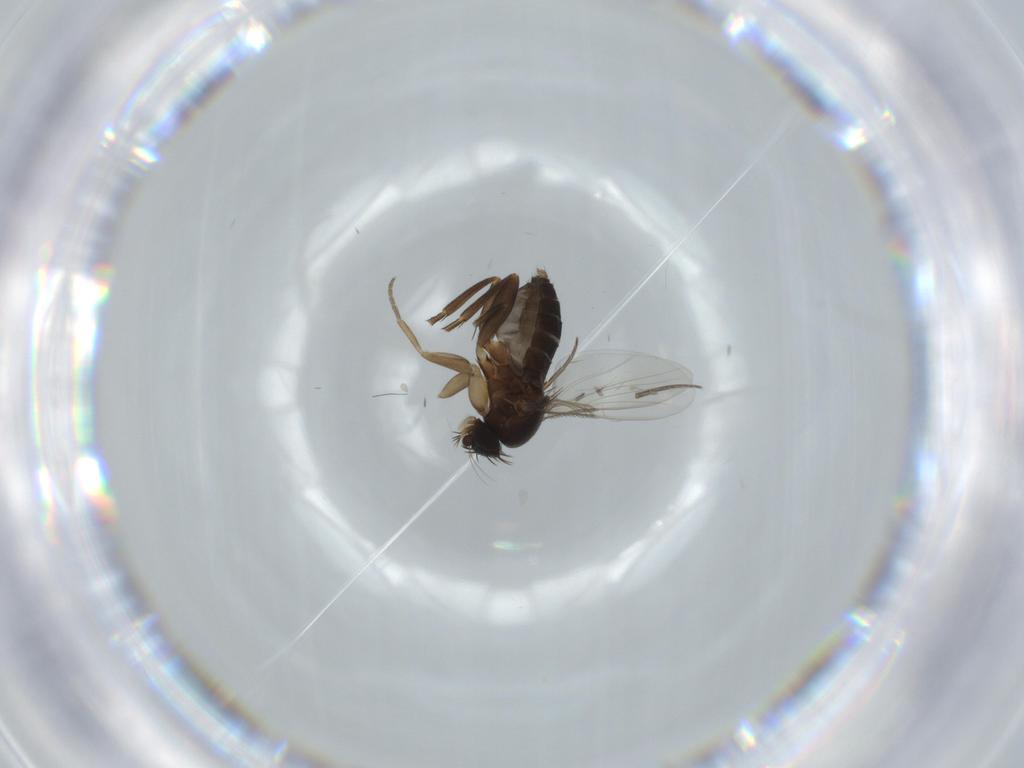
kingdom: Animalia
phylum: Arthropoda
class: Insecta
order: Diptera
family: Phoridae
